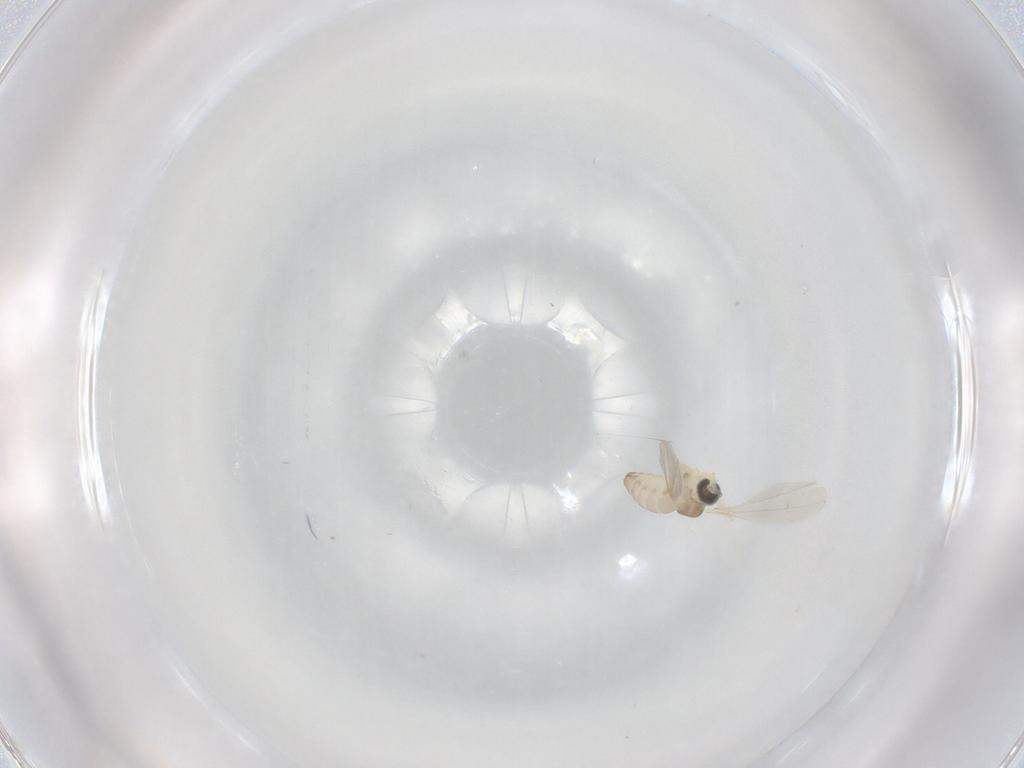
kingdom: Animalia
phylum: Arthropoda
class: Insecta
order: Diptera
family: Cecidomyiidae
